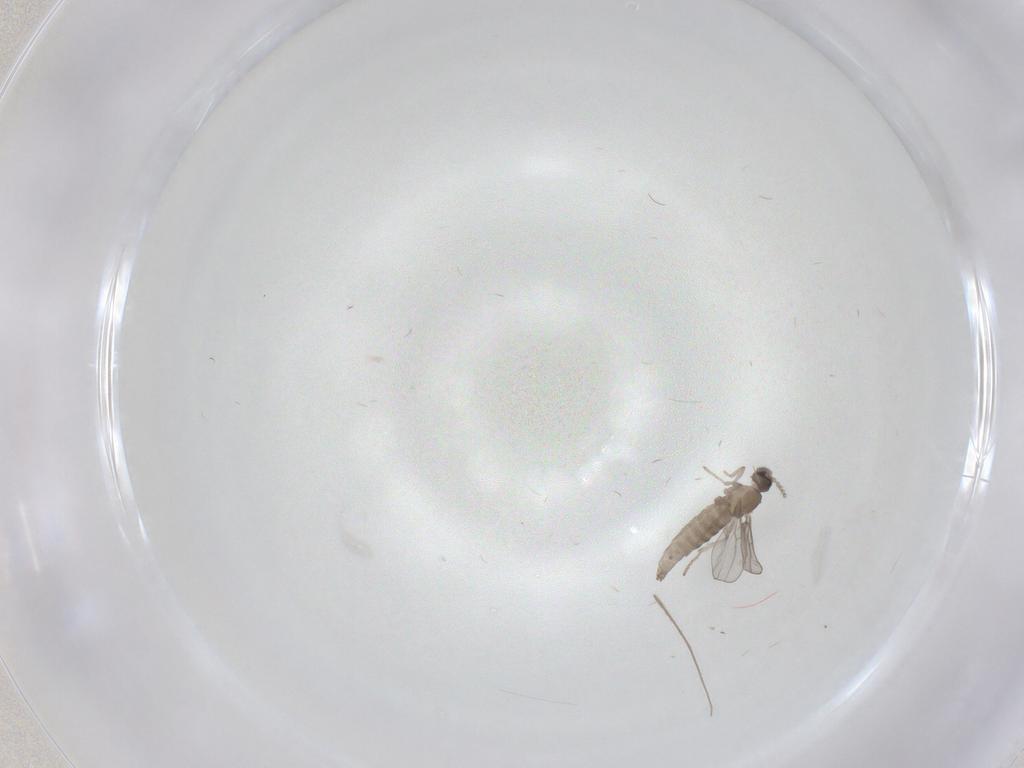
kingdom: Animalia
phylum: Arthropoda
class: Insecta
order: Diptera
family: Cecidomyiidae
